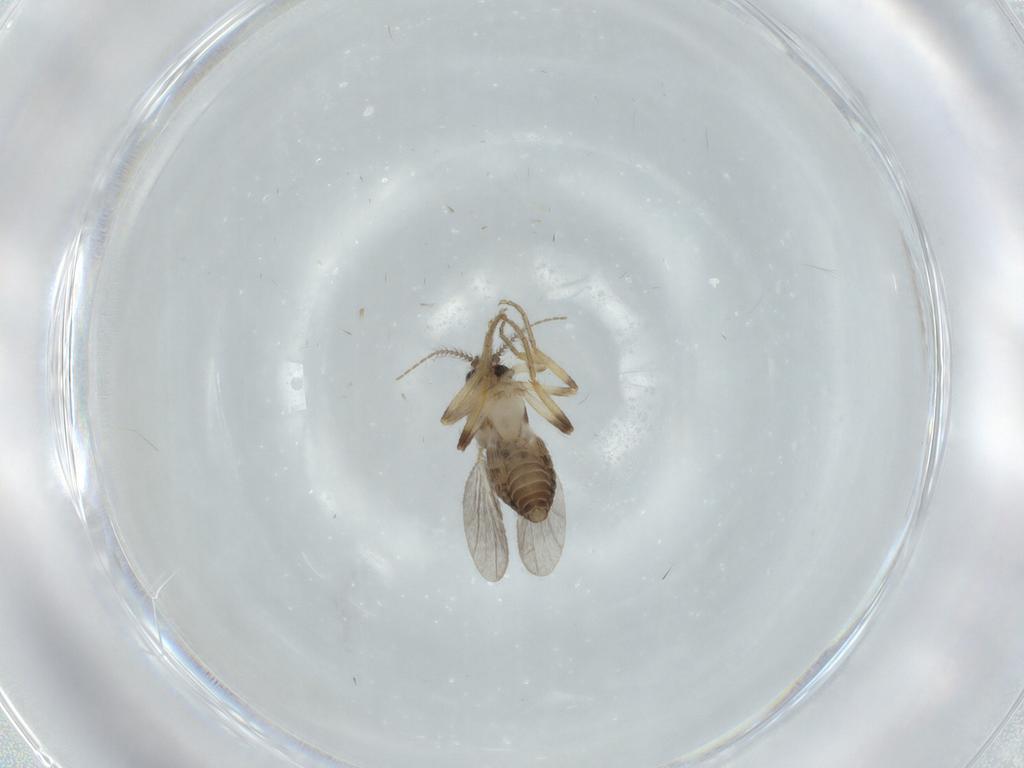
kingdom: Animalia
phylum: Arthropoda
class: Insecta
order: Diptera
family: Ceratopogonidae
